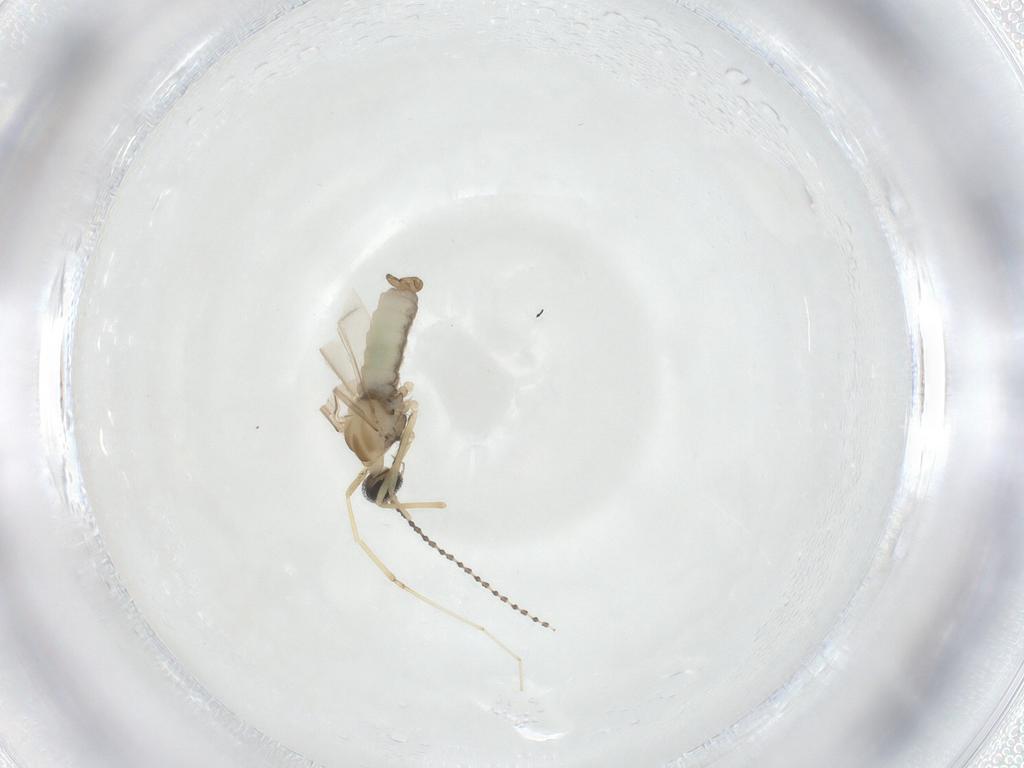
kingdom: Animalia
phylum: Arthropoda
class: Insecta
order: Diptera
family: Cecidomyiidae
